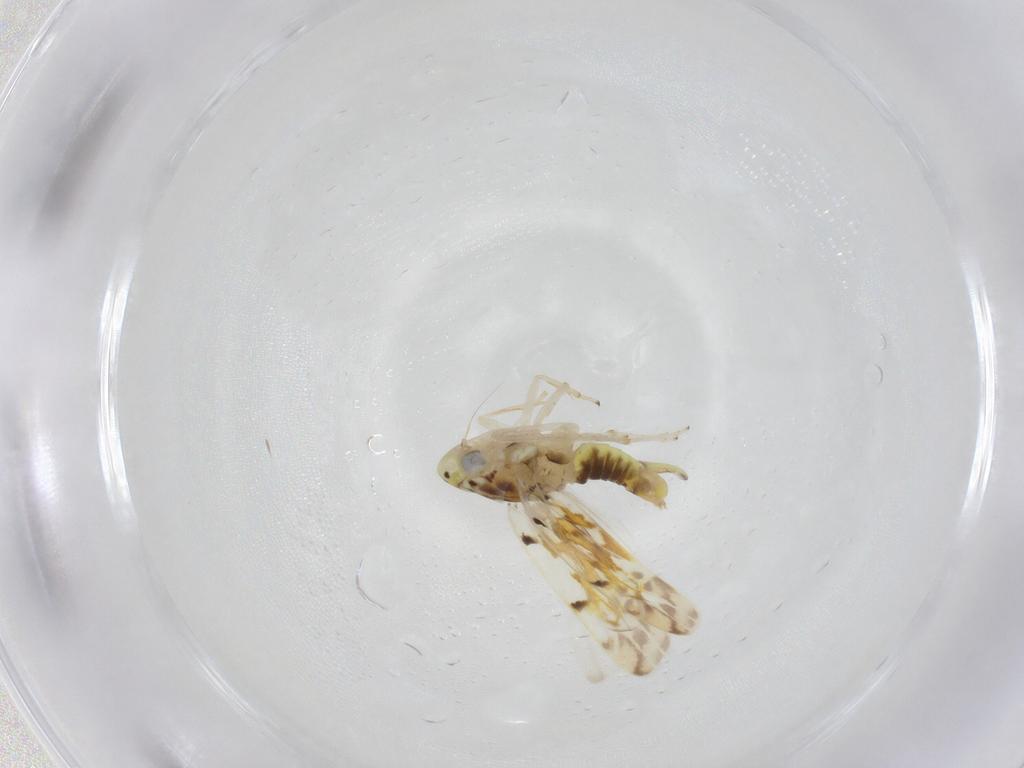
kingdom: Animalia
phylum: Arthropoda
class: Insecta
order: Hemiptera
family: Cicadellidae
